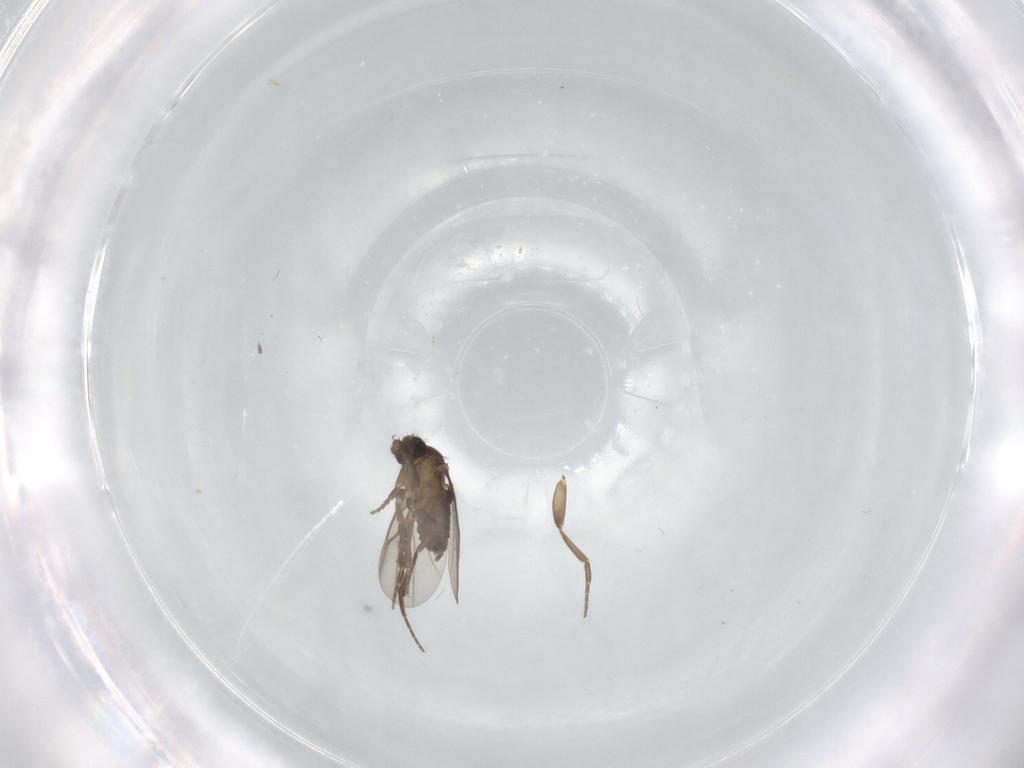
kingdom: Animalia
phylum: Arthropoda
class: Insecta
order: Diptera
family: Phoridae
